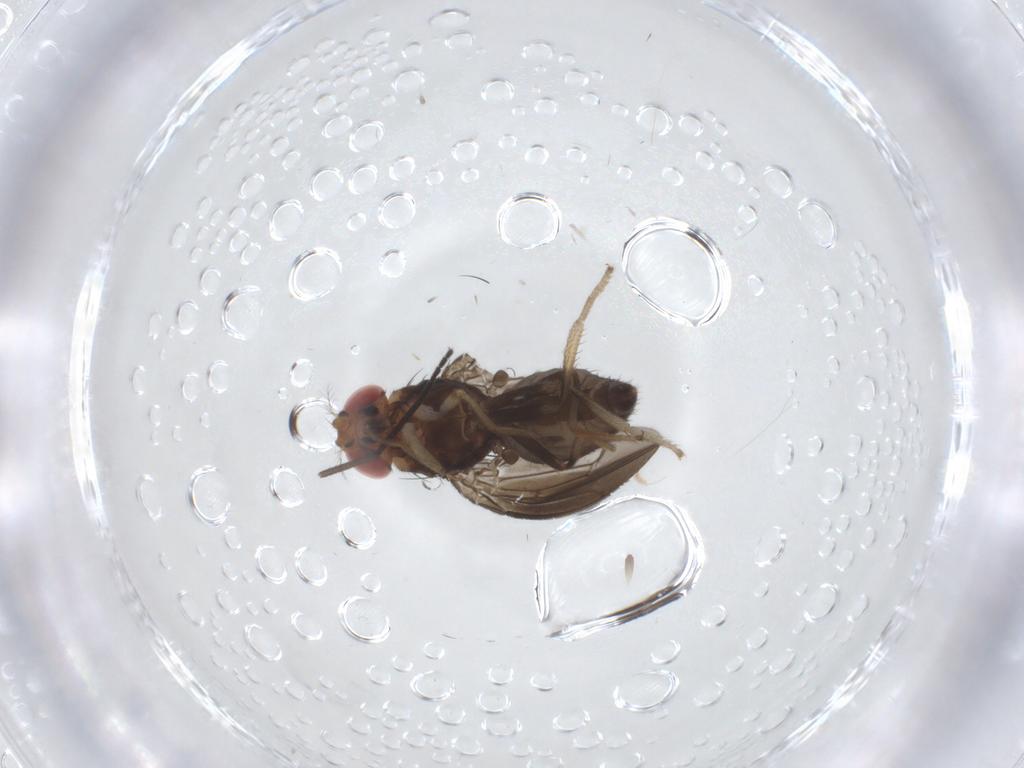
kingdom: Animalia
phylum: Arthropoda
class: Insecta
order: Diptera
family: Drosophilidae
